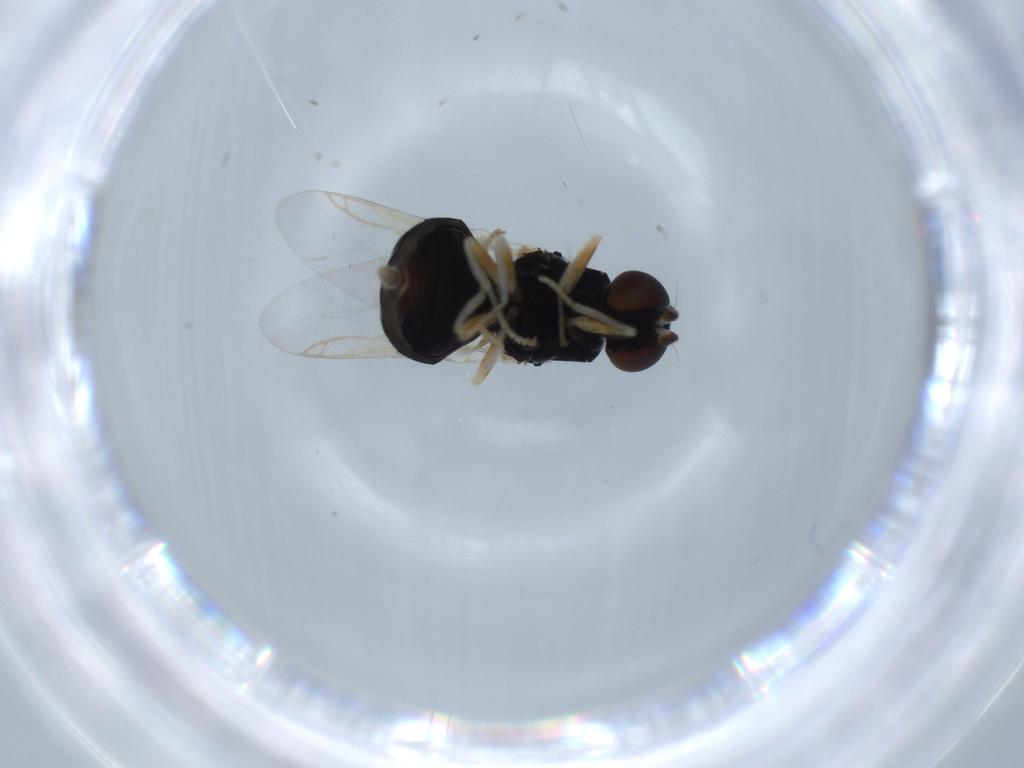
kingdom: Animalia
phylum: Arthropoda
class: Insecta
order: Diptera
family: Stratiomyidae
